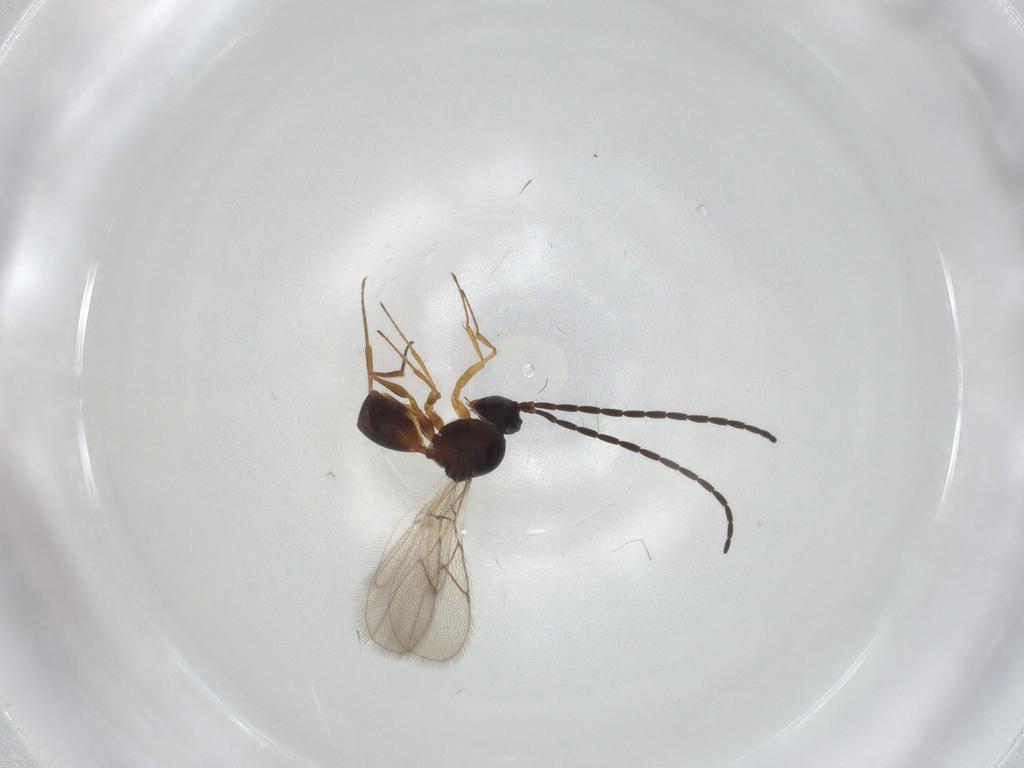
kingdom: Animalia
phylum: Arthropoda
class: Insecta
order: Hymenoptera
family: Figitidae
